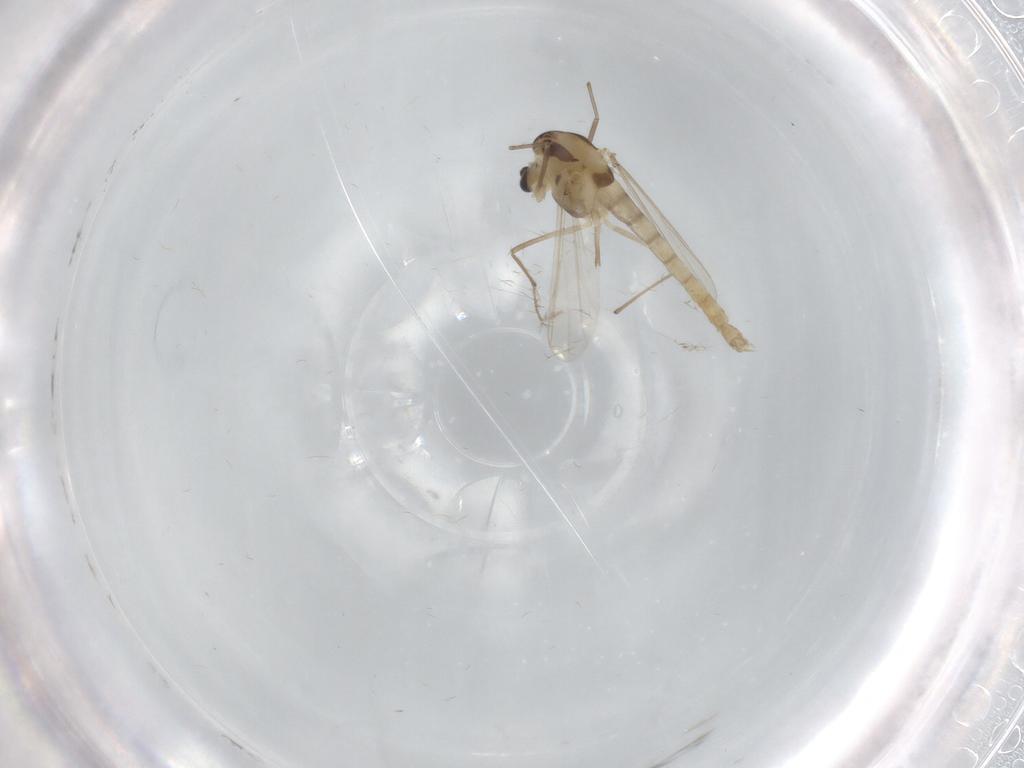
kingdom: Animalia
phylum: Arthropoda
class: Insecta
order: Diptera
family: Chironomidae
